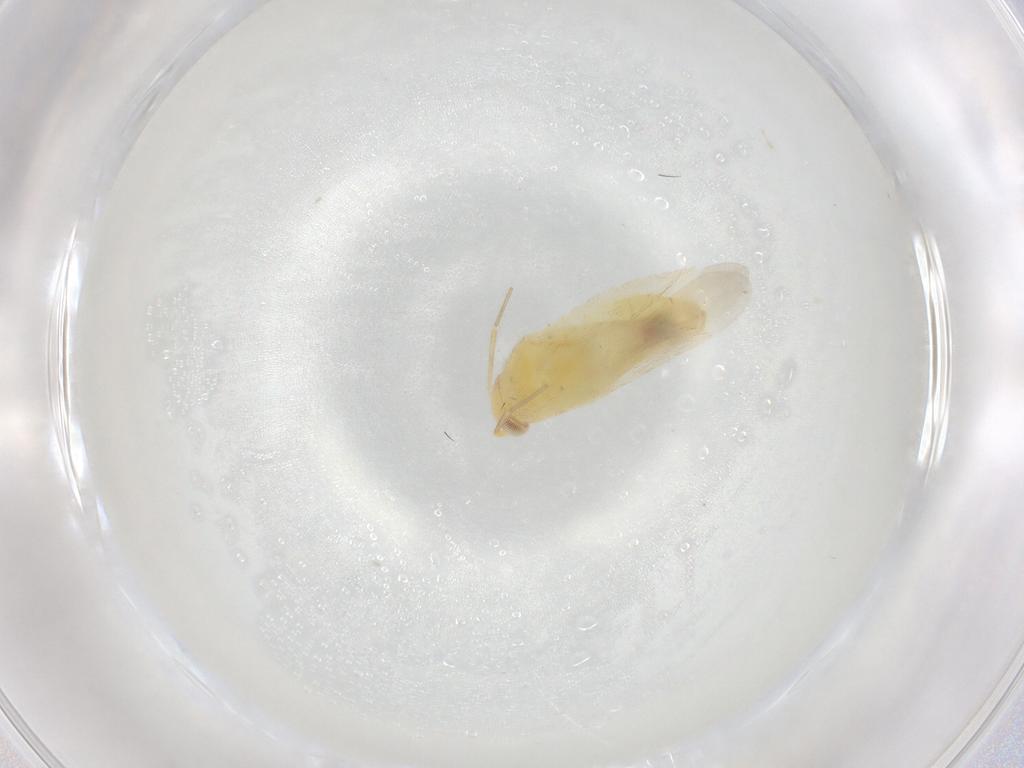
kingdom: Animalia
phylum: Arthropoda
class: Insecta
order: Hemiptera
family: Miridae
